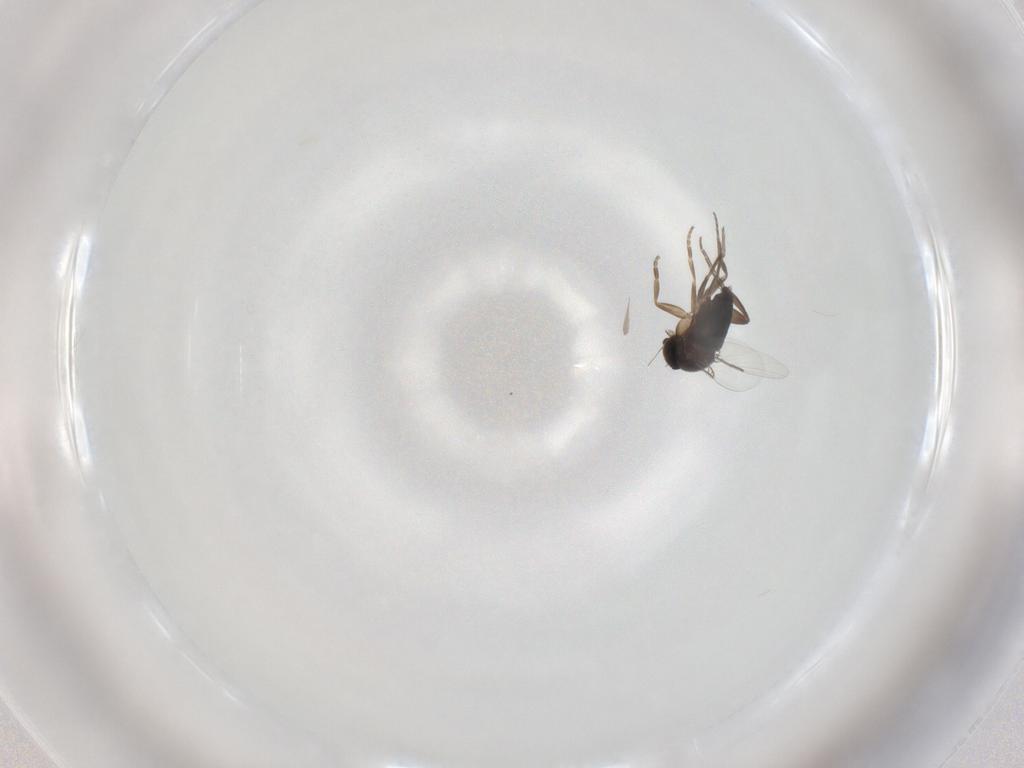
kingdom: Animalia
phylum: Arthropoda
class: Insecta
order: Diptera
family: Phoridae
